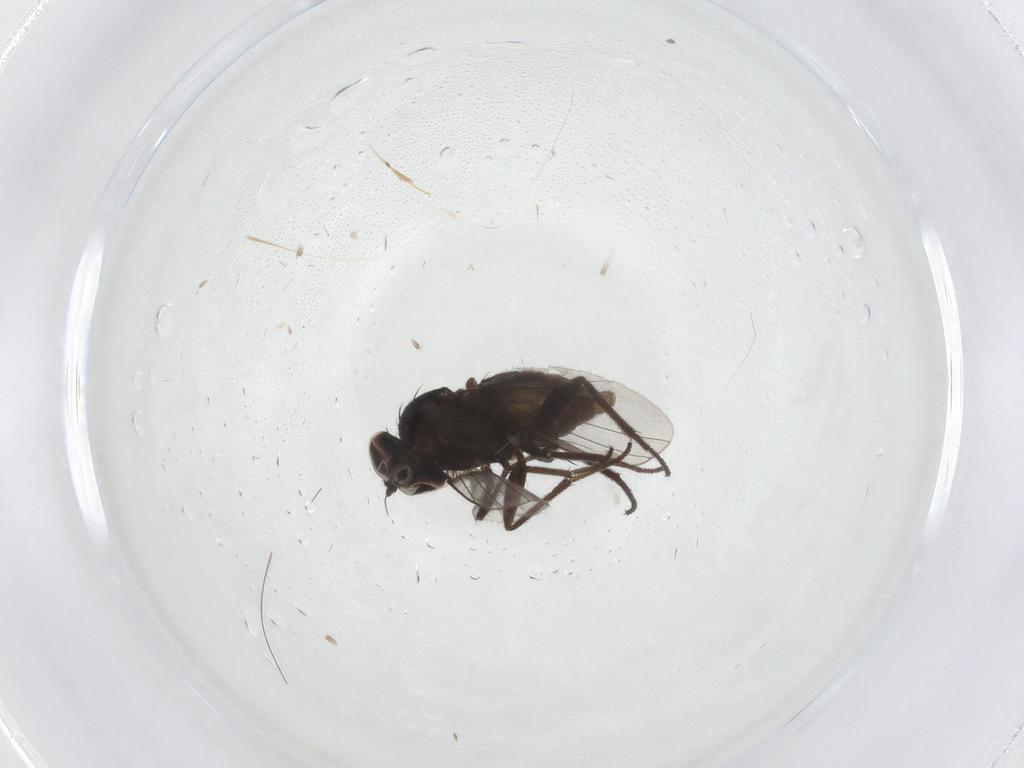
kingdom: Animalia
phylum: Arthropoda
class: Insecta
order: Diptera
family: Dolichopodidae
